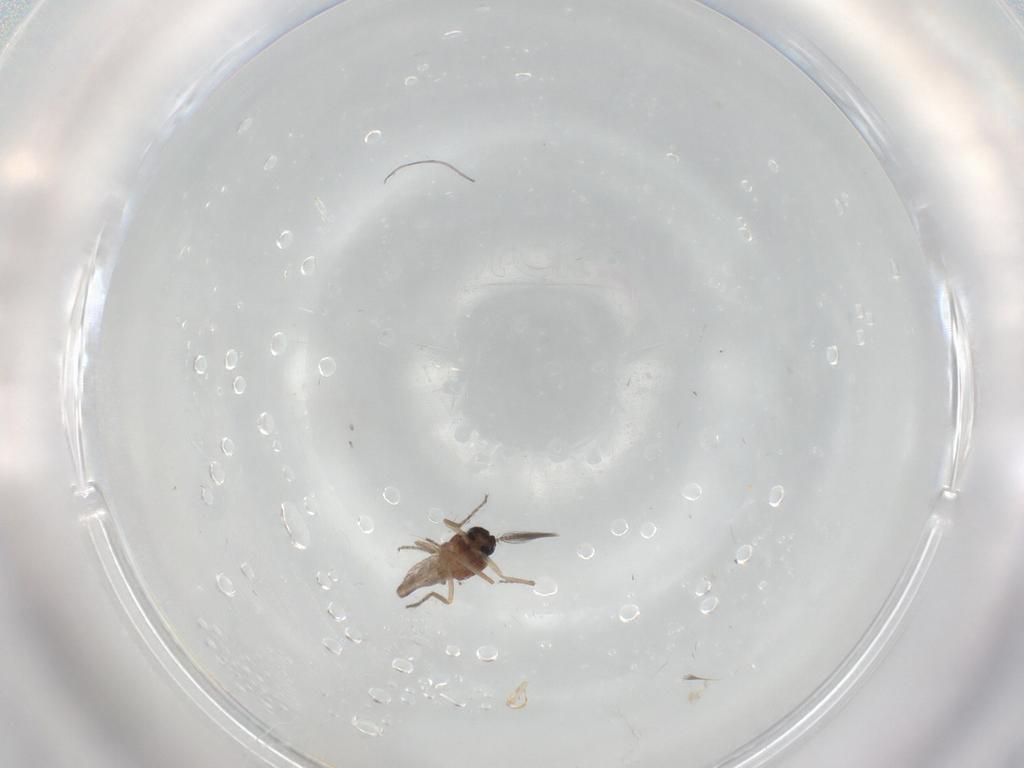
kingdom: Animalia
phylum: Arthropoda
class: Insecta
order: Diptera
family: Ceratopogonidae
